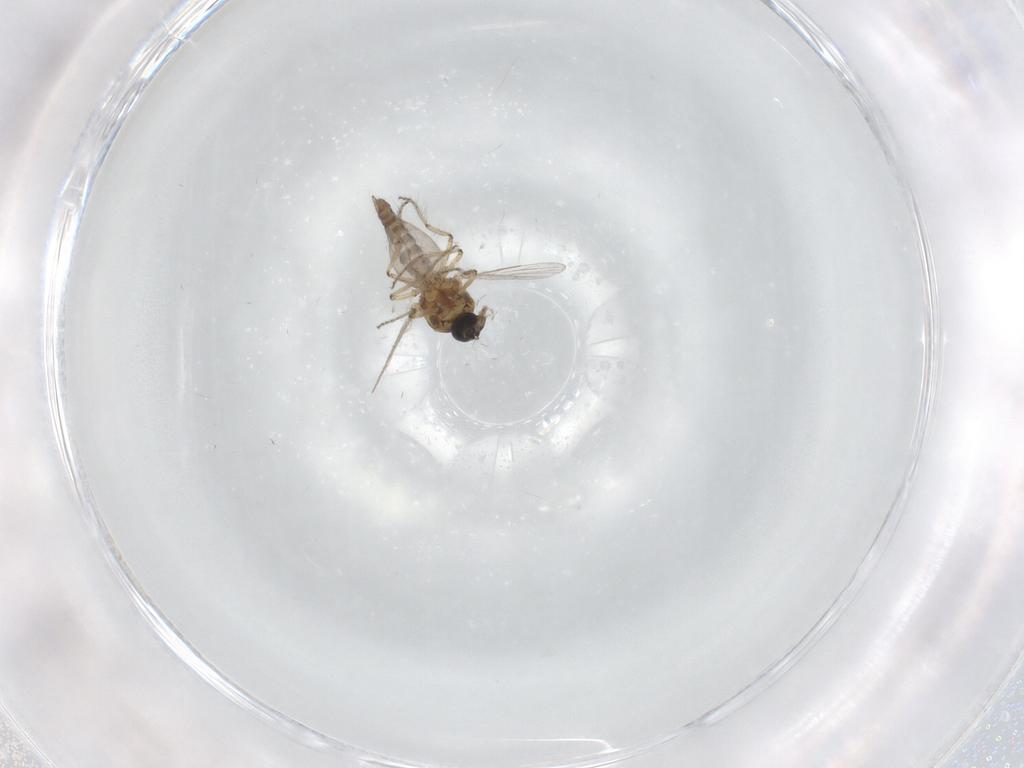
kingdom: Animalia
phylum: Arthropoda
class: Insecta
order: Diptera
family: Ceratopogonidae
